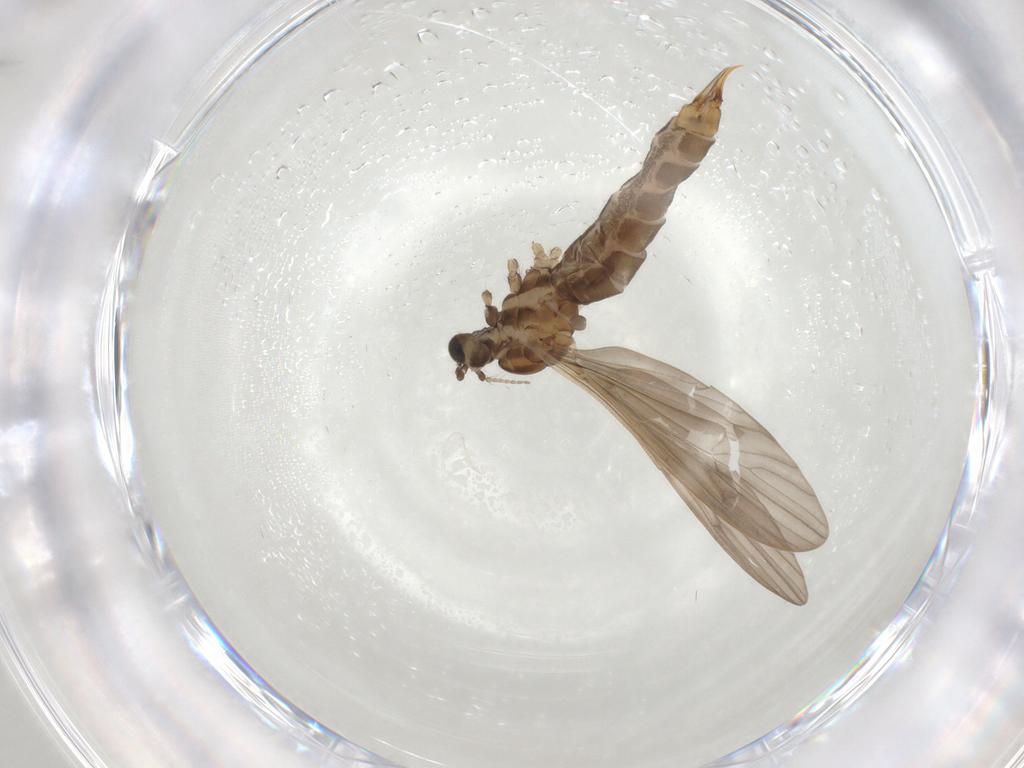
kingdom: Animalia
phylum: Arthropoda
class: Insecta
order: Diptera
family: Limoniidae
